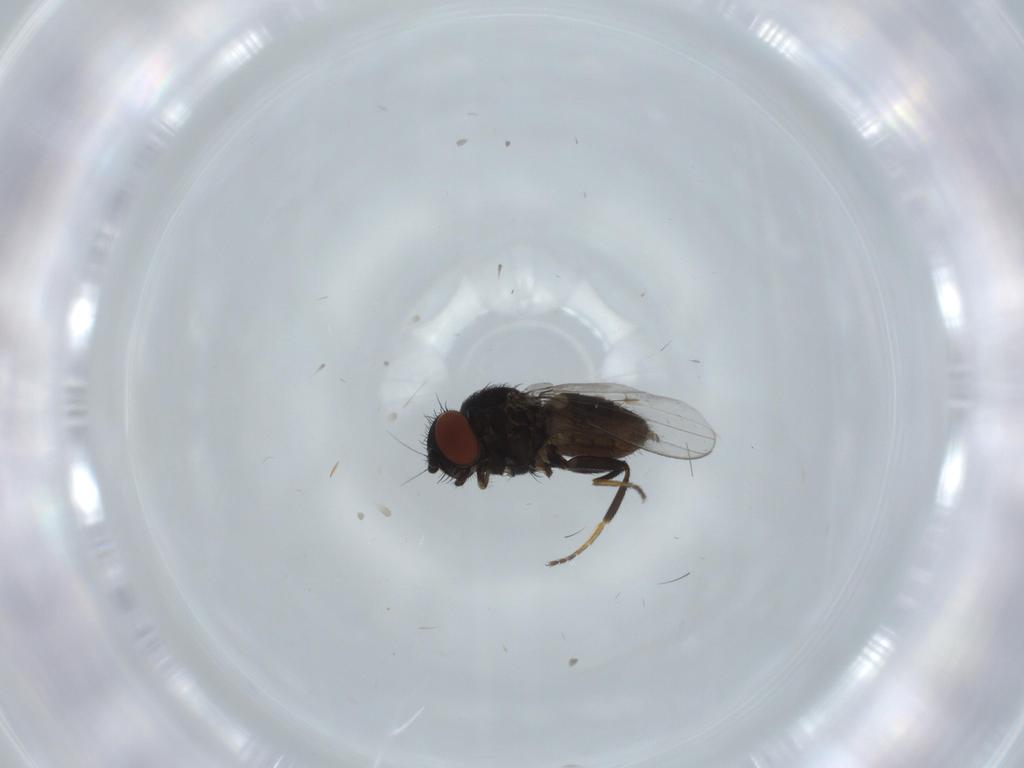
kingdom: Animalia
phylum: Arthropoda
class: Insecta
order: Diptera
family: Milichiidae
